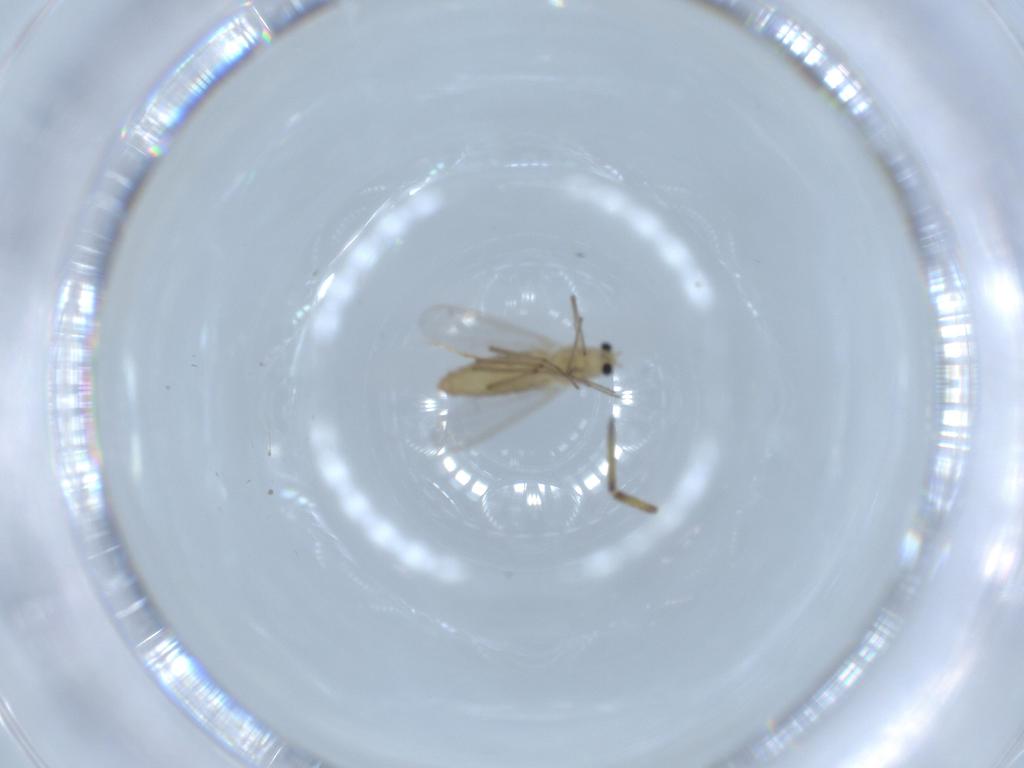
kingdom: Animalia
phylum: Arthropoda
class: Insecta
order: Diptera
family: Chironomidae
